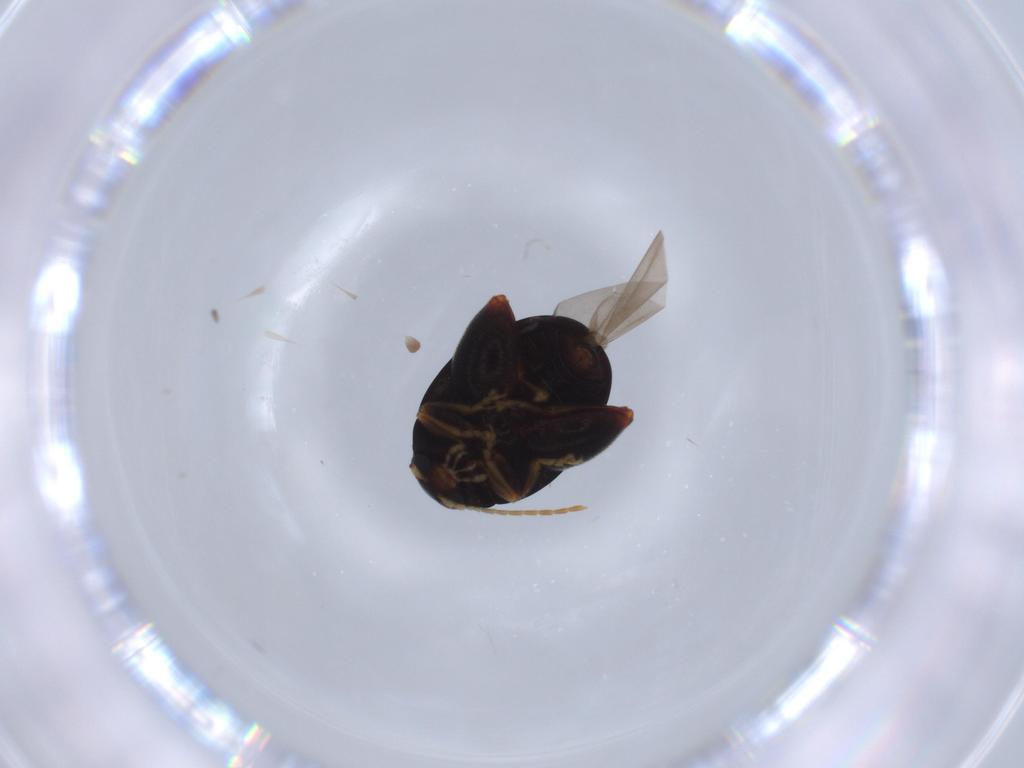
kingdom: Animalia
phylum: Arthropoda
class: Insecta
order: Coleoptera
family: Chrysomelidae
